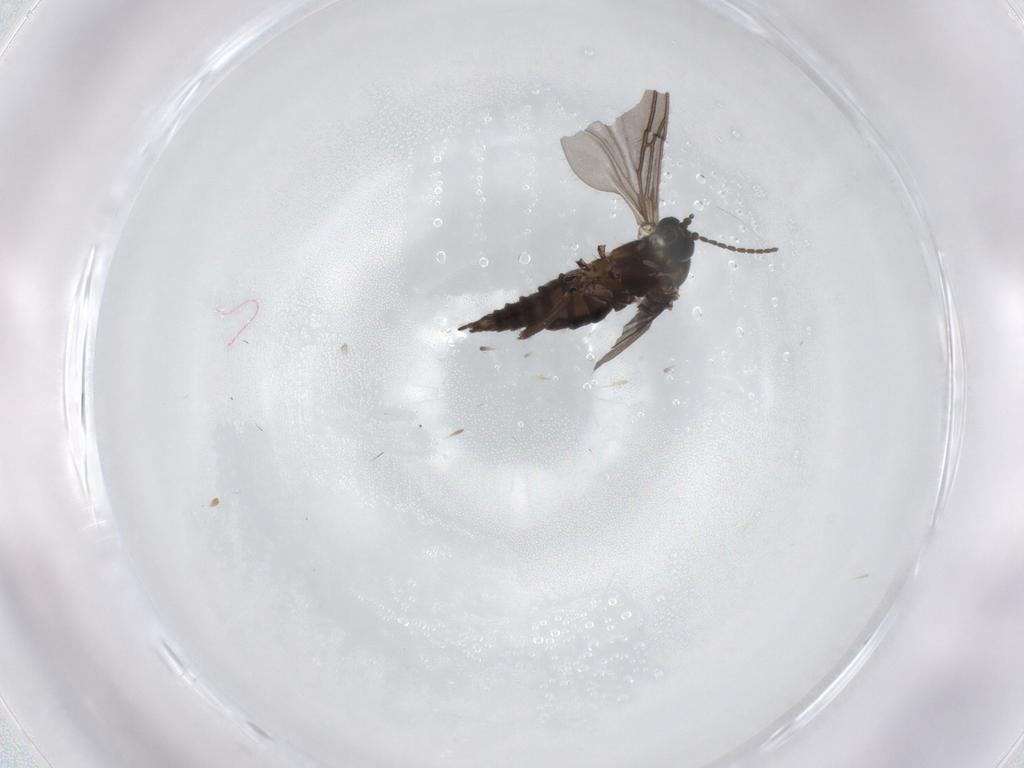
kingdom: Animalia
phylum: Arthropoda
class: Insecta
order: Diptera
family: Sciaridae
